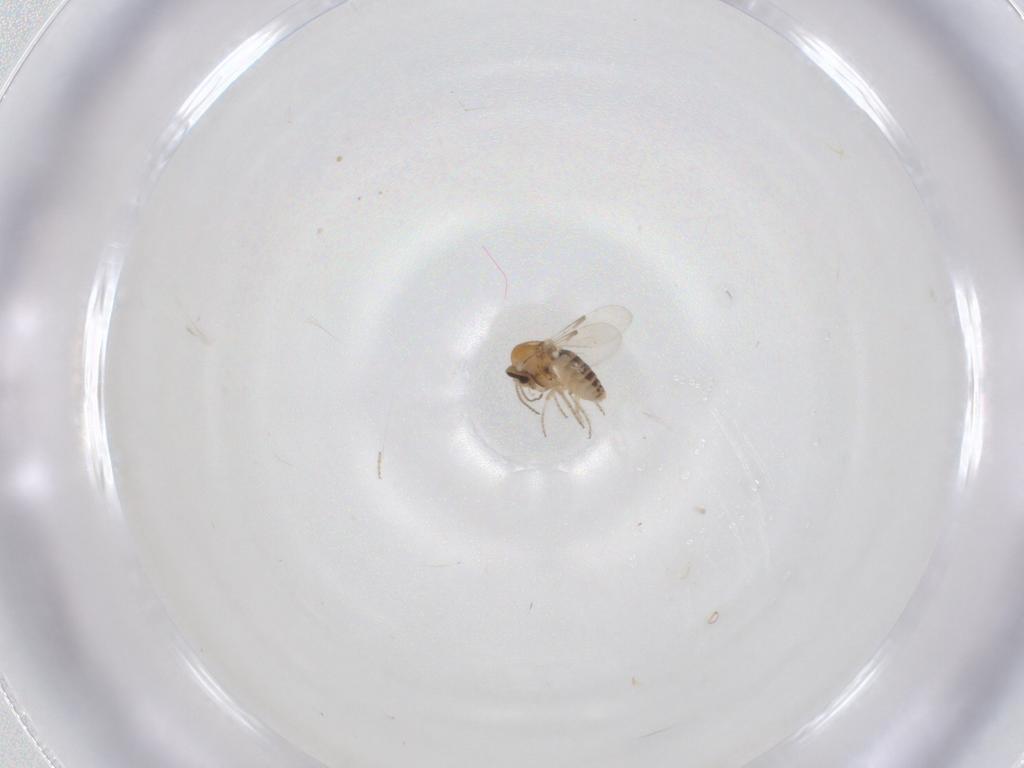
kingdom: Animalia
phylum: Arthropoda
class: Insecta
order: Diptera
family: Ceratopogonidae
